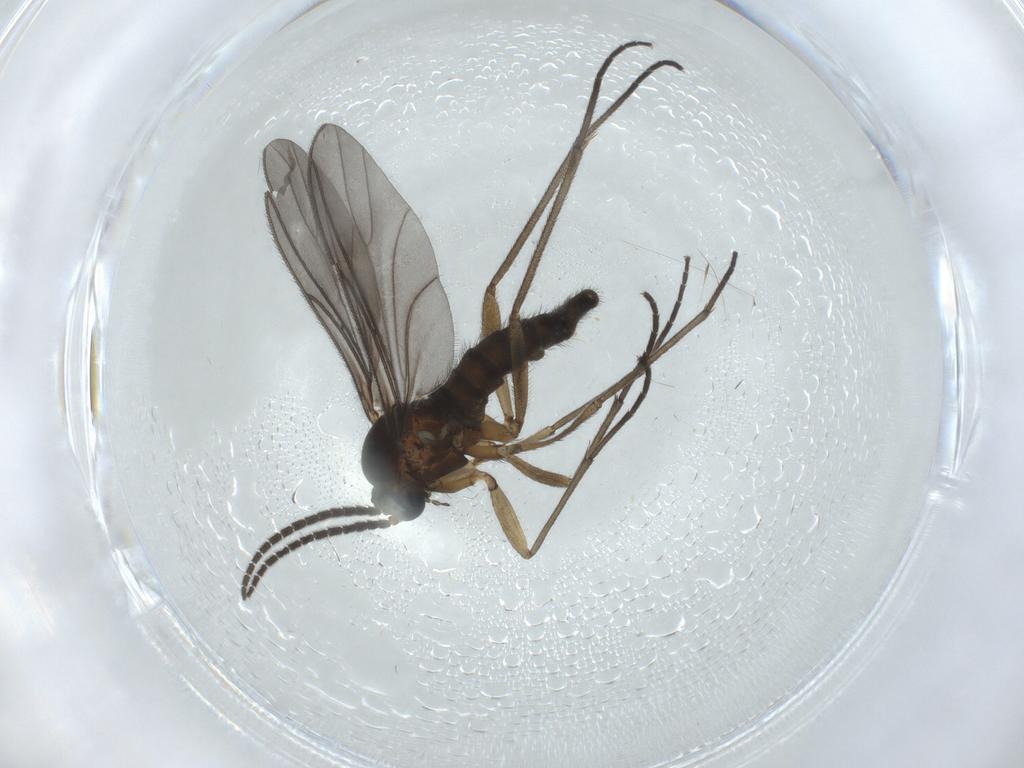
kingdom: Animalia
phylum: Arthropoda
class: Insecta
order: Diptera
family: Sciaridae
